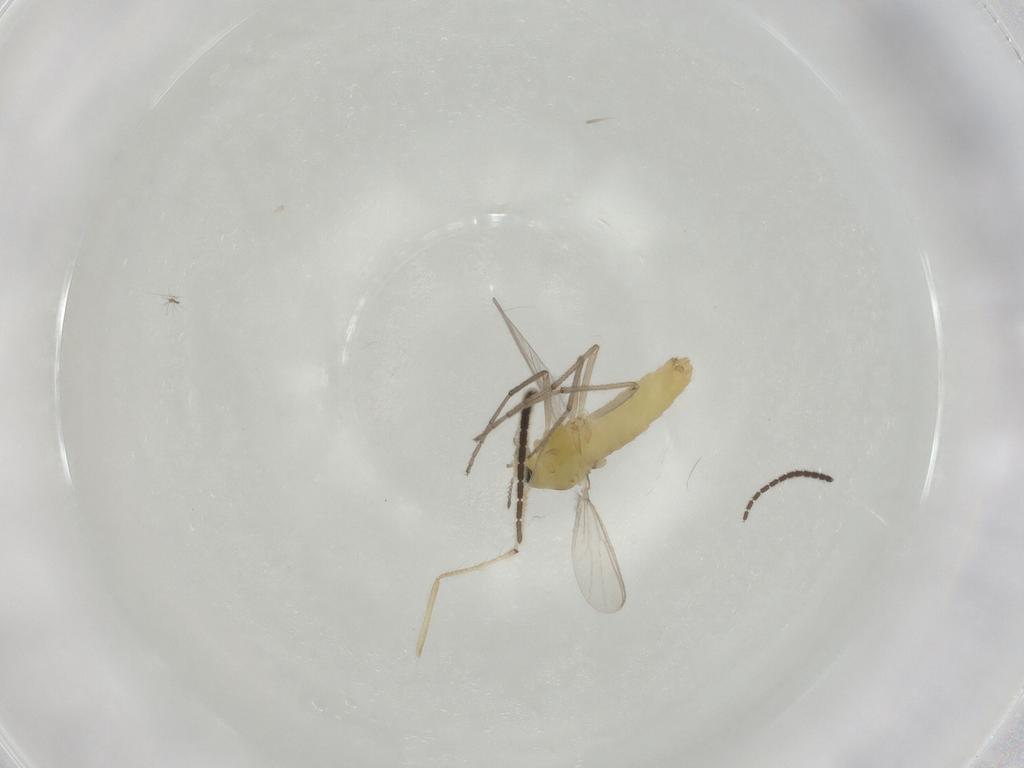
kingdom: Animalia
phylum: Arthropoda
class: Insecta
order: Diptera
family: Chironomidae
